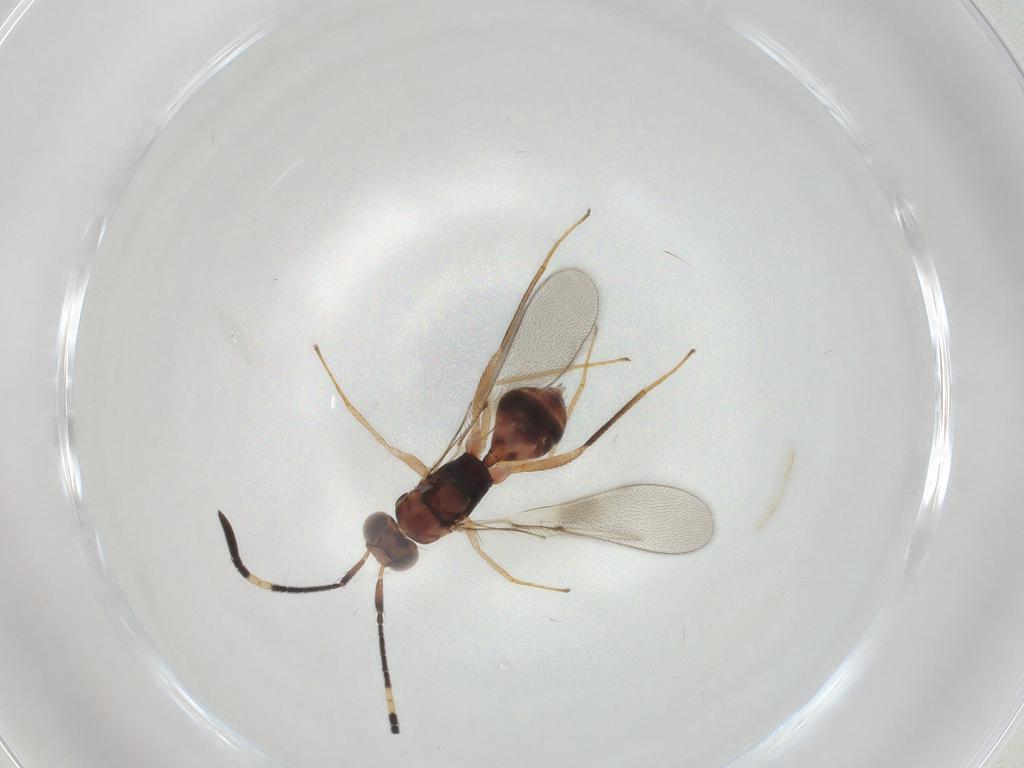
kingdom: Animalia
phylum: Arthropoda
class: Insecta
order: Hymenoptera
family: Mymaridae
